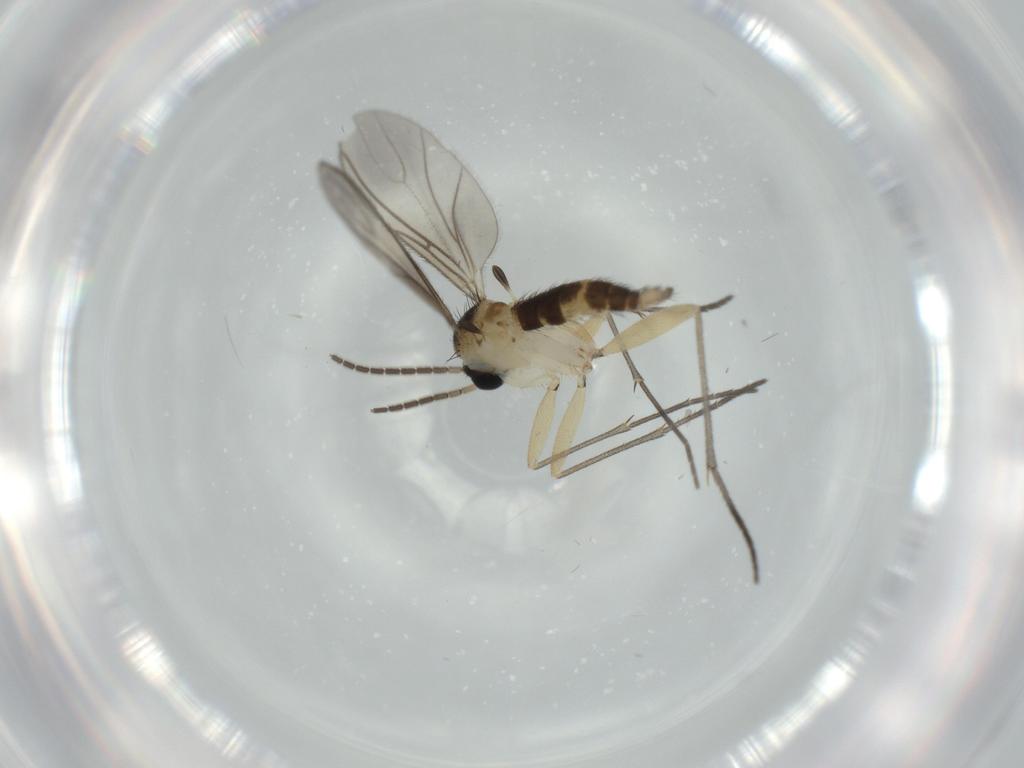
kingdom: Animalia
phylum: Arthropoda
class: Insecta
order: Diptera
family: Sciaridae
